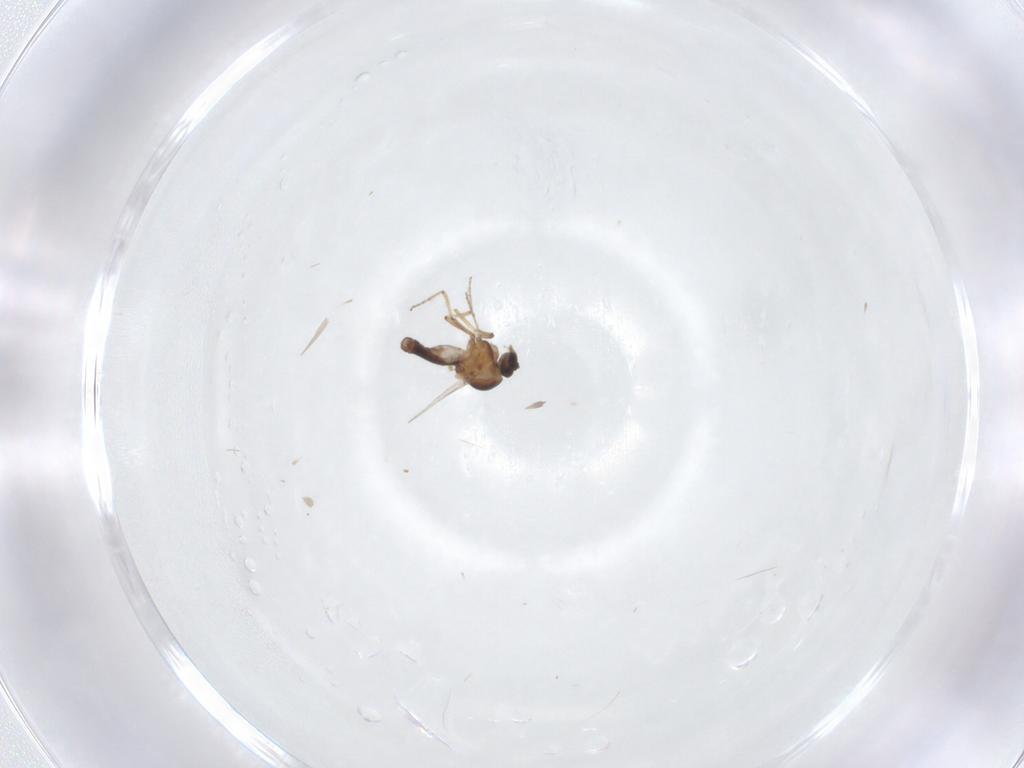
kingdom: Animalia
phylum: Arthropoda
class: Insecta
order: Diptera
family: Ceratopogonidae
